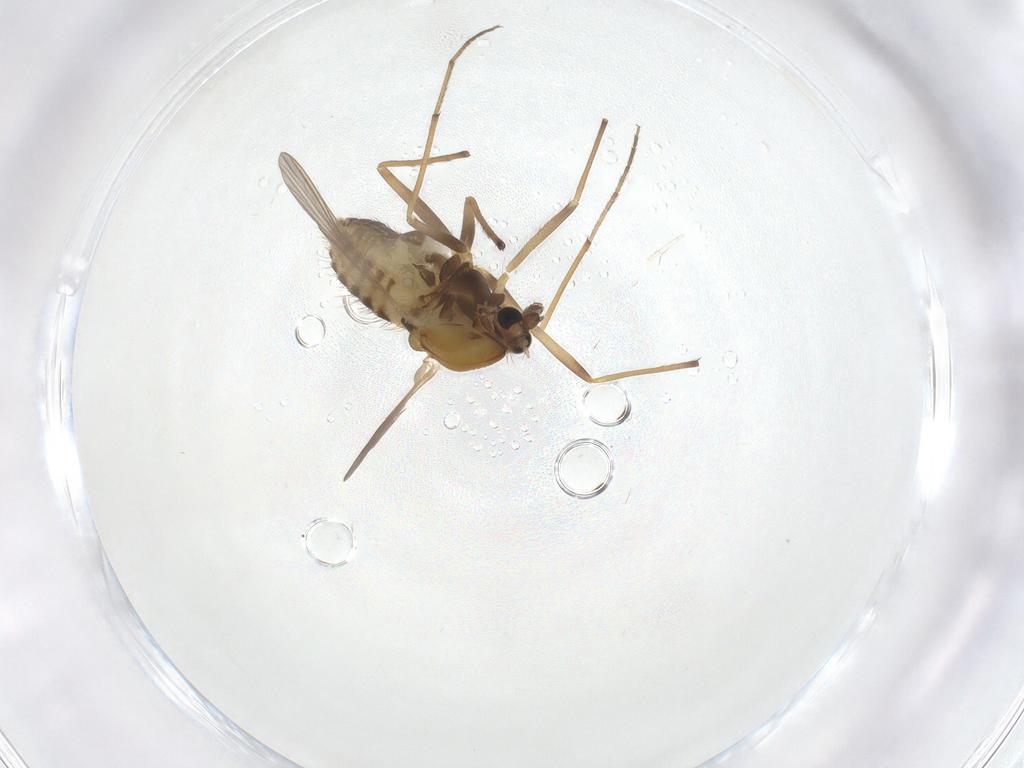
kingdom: Animalia
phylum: Arthropoda
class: Insecta
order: Diptera
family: Chironomidae
